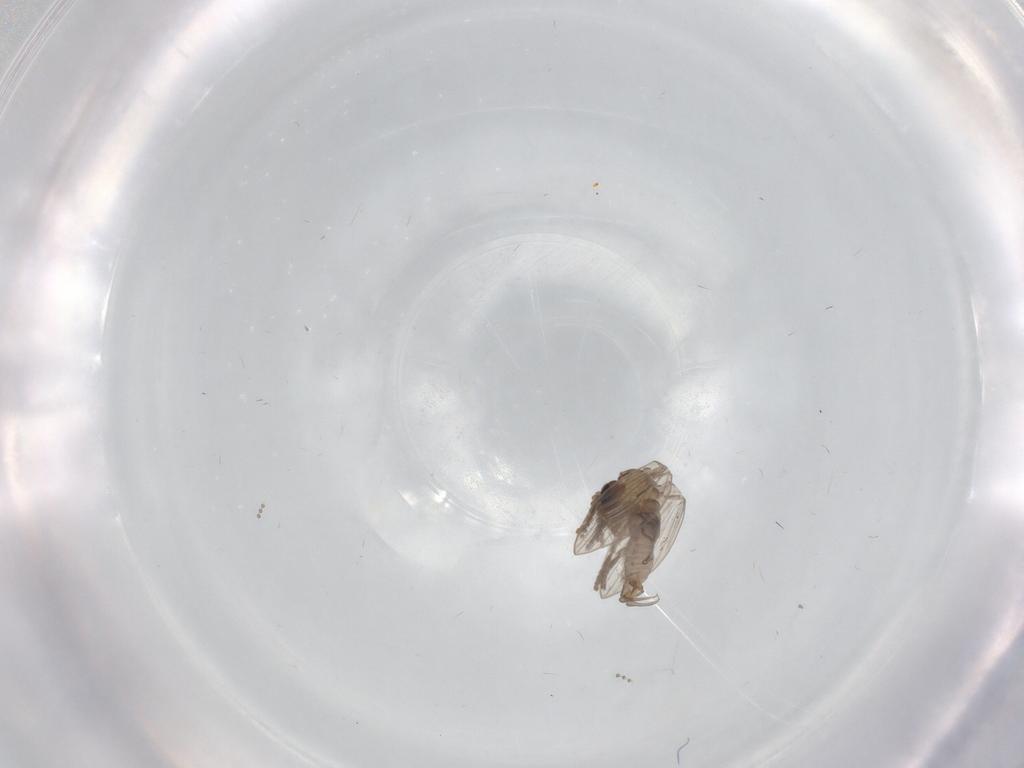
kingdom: Animalia
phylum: Arthropoda
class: Insecta
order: Diptera
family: Psychodidae
